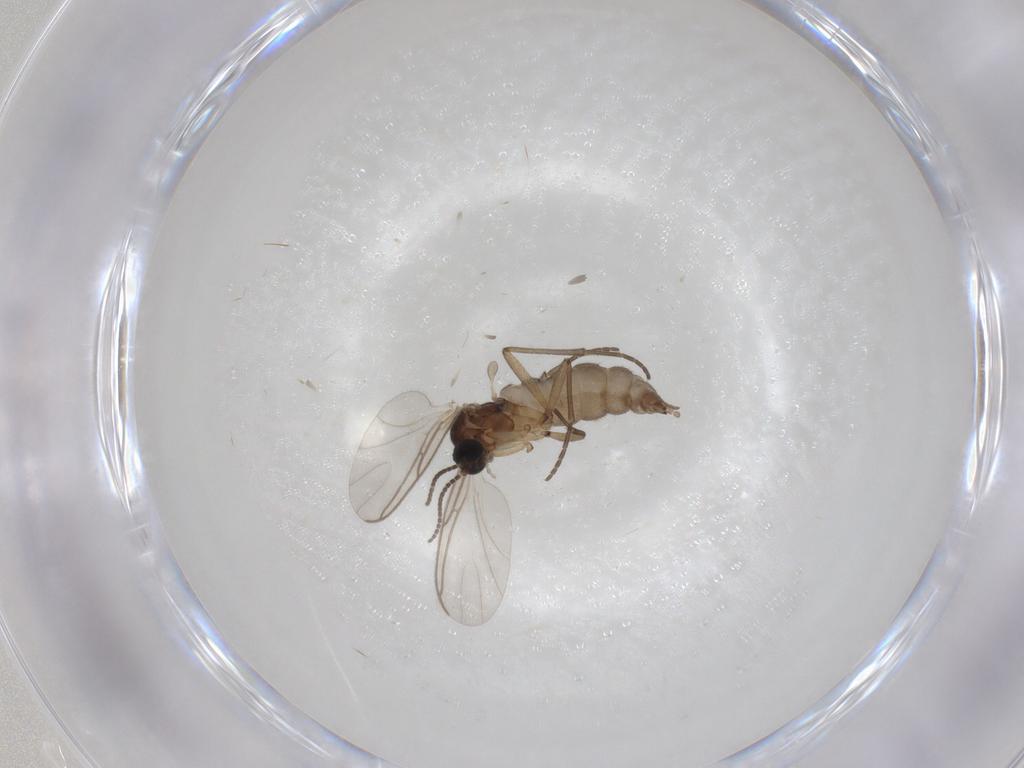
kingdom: Animalia
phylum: Arthropoda
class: Insecta
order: Diptera
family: Sciaridae
